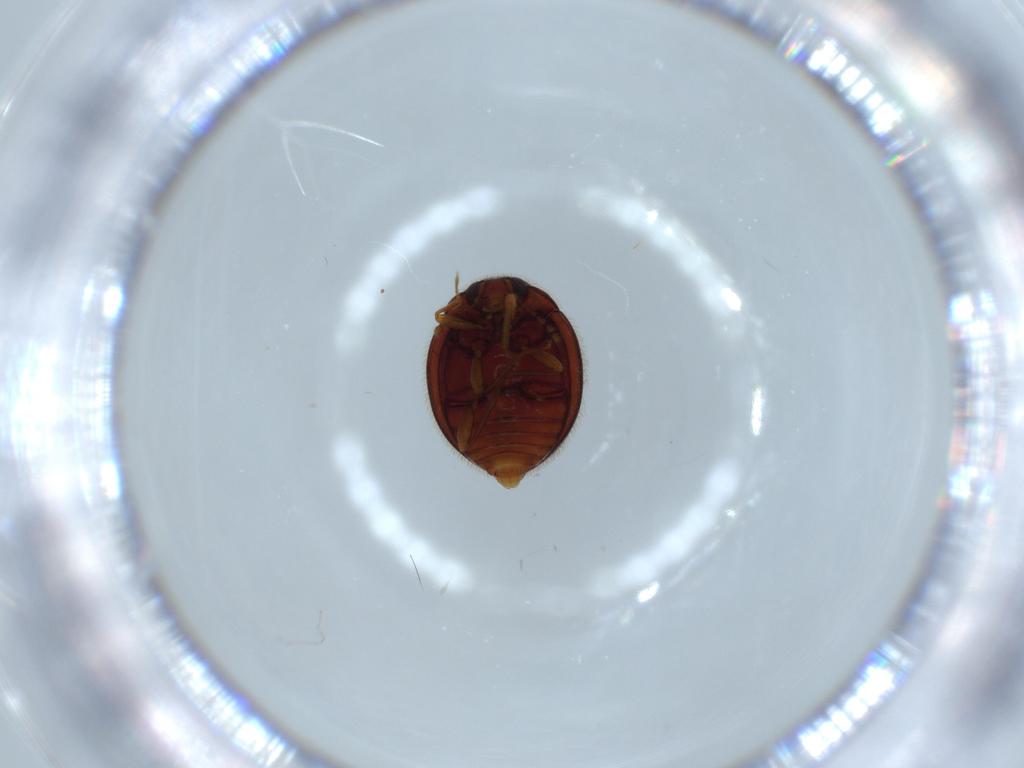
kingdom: Animalia
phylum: Arthropoda
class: Insecta
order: Coleoptera
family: Anamorphidae
